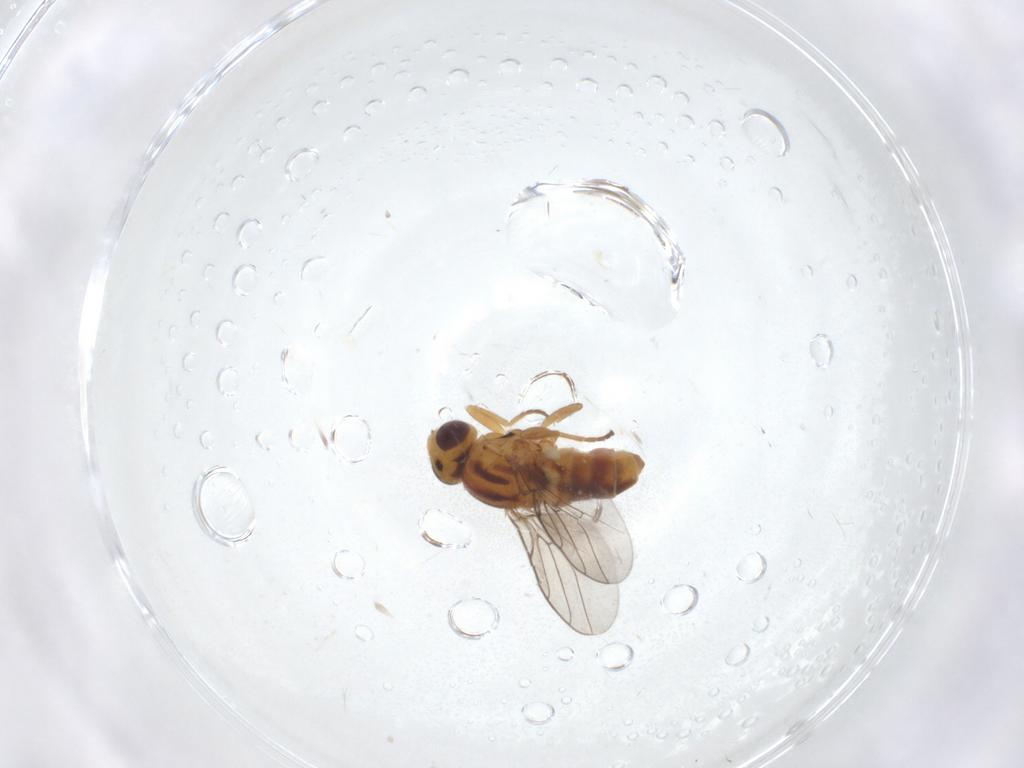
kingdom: Animalia
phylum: Arthropoda
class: Insecta
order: Diptera
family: Chloropidae
